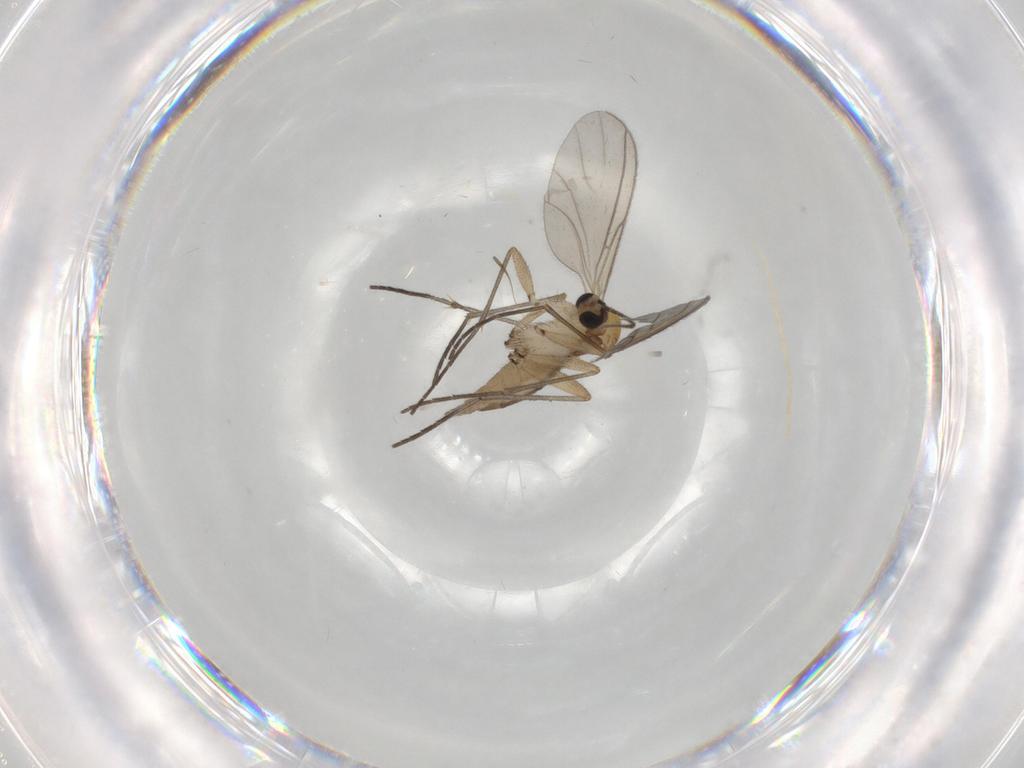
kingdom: Animalia
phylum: Arthropoda
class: Insecta
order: Diptera
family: Sciaridae
